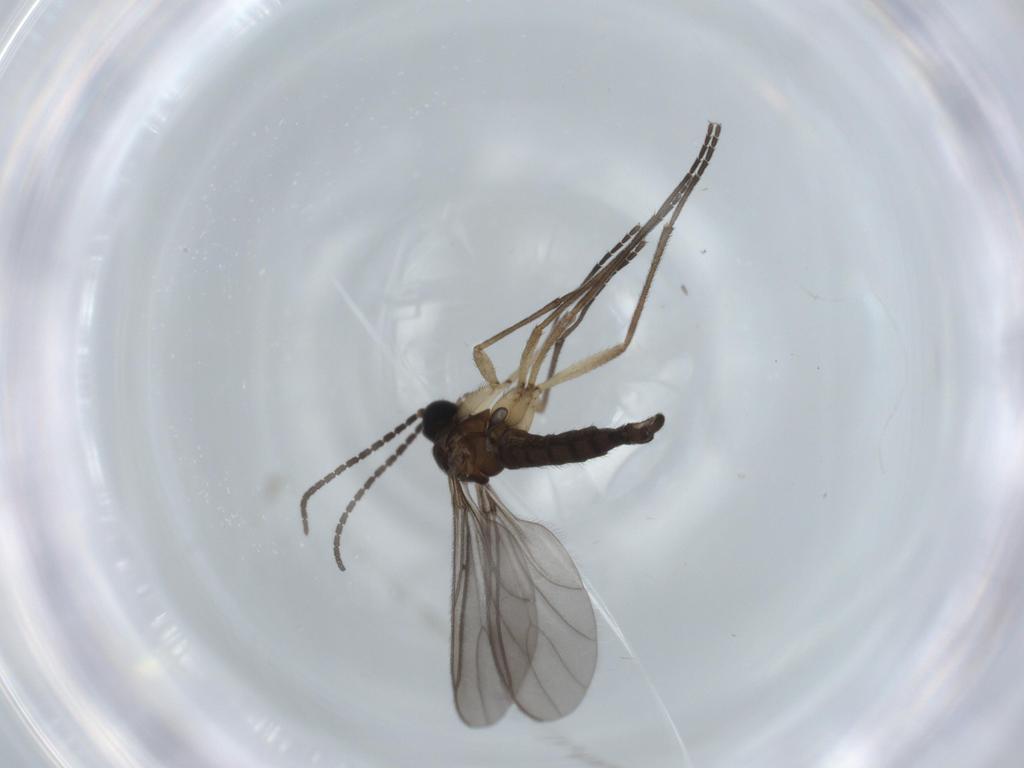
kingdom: Animalia
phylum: Arthropoda
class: Insecta
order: Diptera
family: Sciaridae
